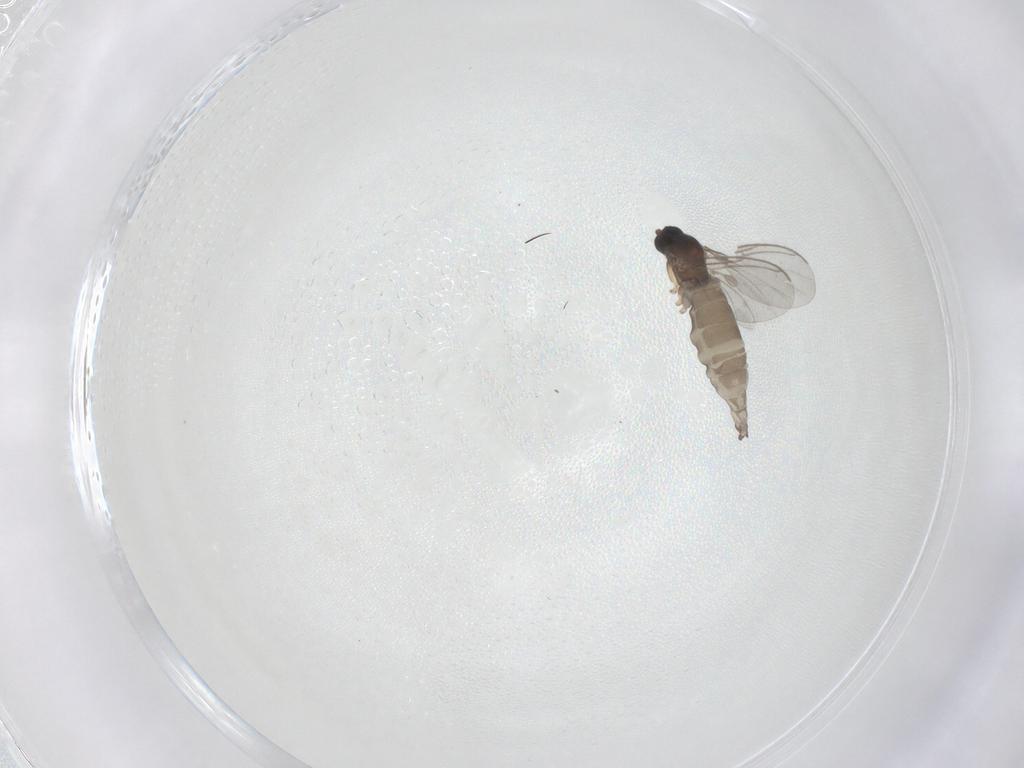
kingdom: Animalia
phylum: Arthropoda
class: Insecta
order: Diptera
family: Sciaridae
